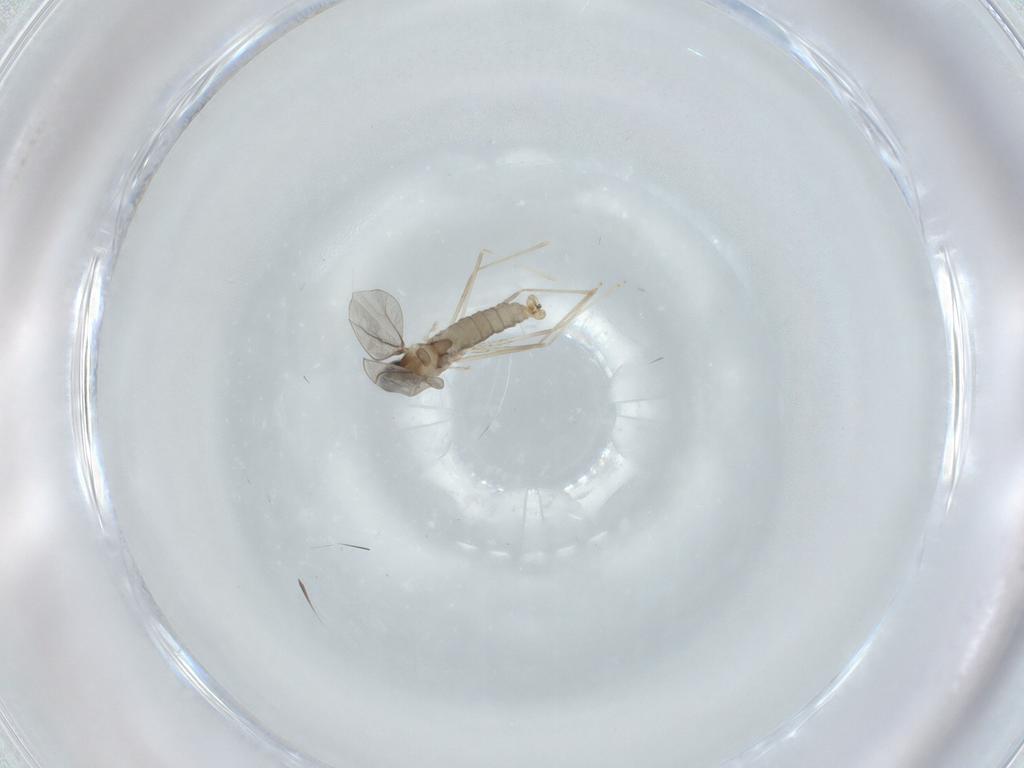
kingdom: Animalia
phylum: Arthropoda
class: Insecta
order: Diptera
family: Cecidomyiidae
